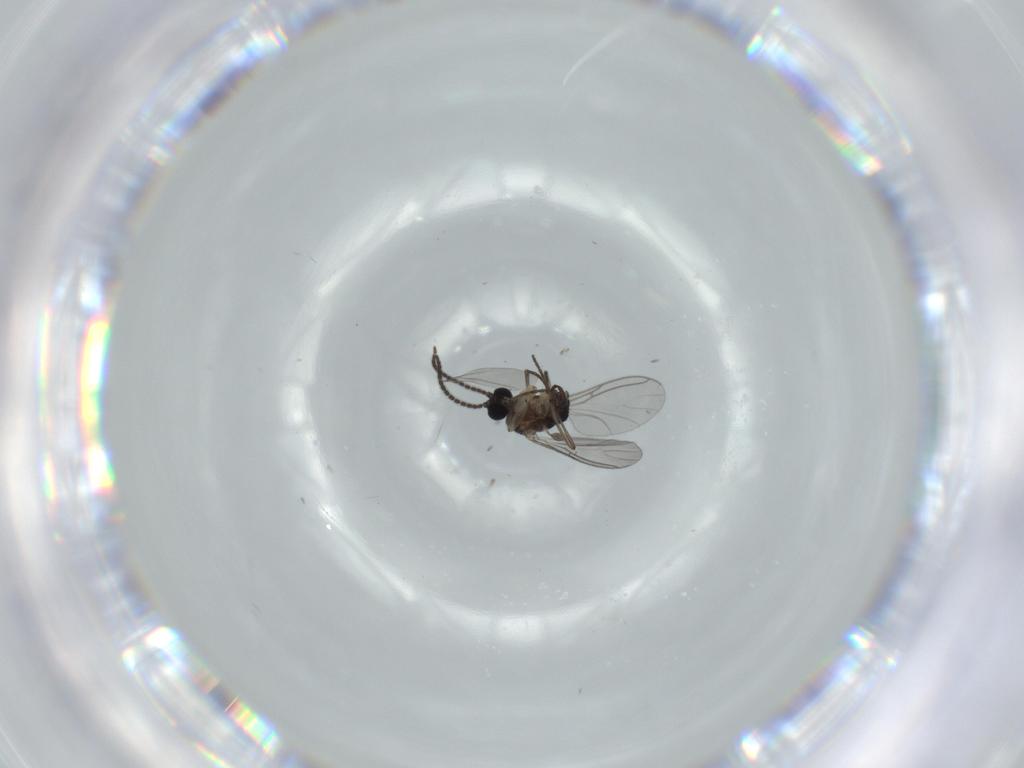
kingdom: Animalia
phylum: Arthropoda
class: Insecta
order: Diptera
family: Sciaridae
